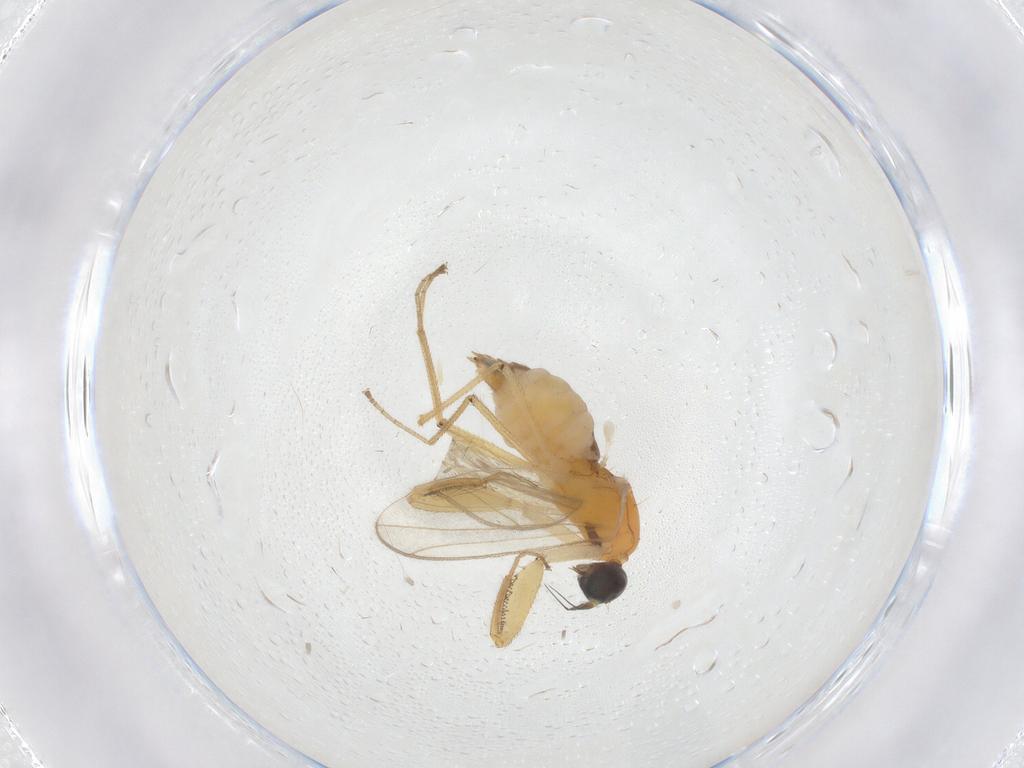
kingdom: Animalia
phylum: Arthropoda
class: Insecta
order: Diptera
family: Empididae
